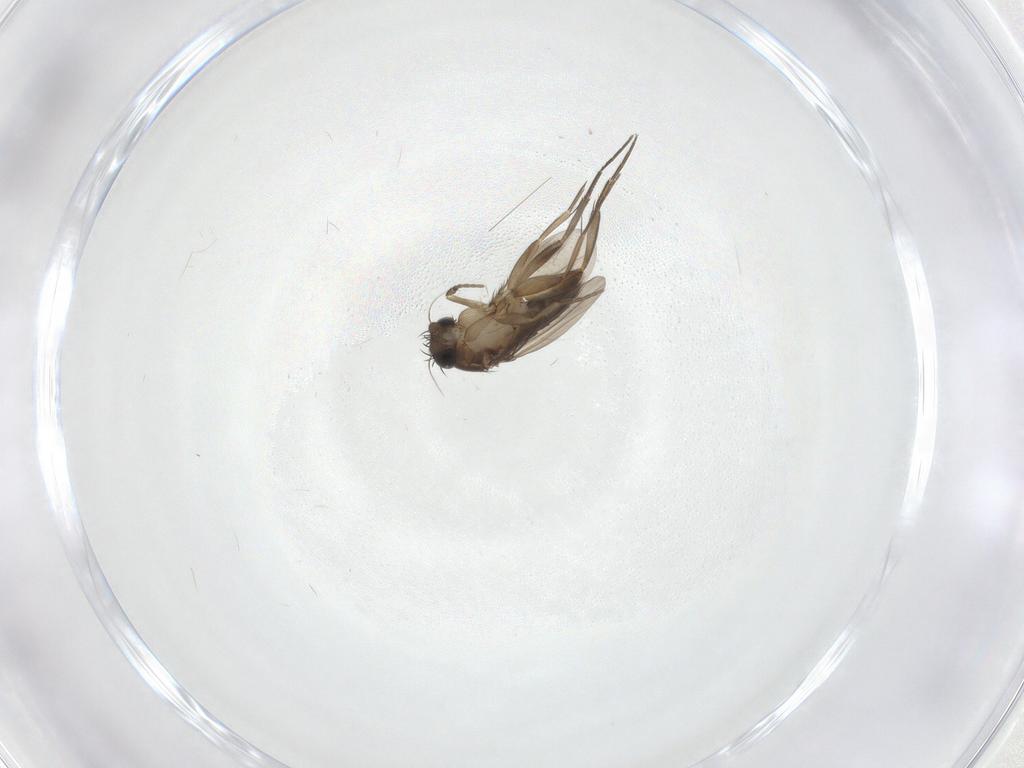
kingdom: Animalia
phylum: Arthropoda
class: Insecta
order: Diptera
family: Phoridae
